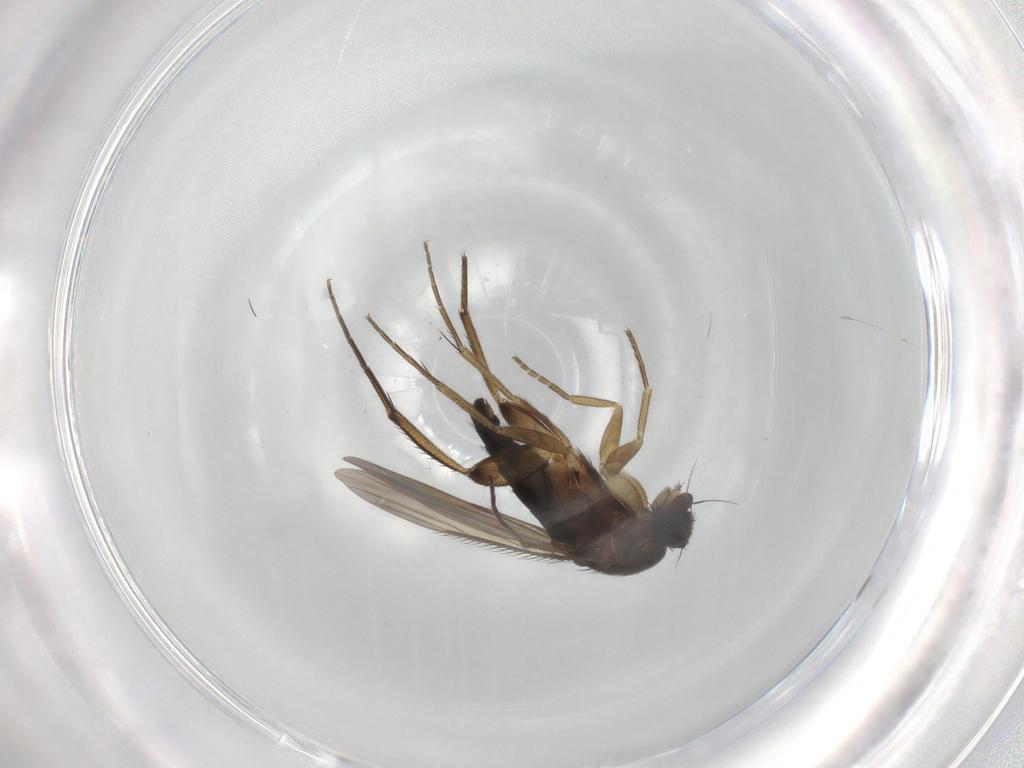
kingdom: Animalia
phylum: Arthropoda
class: Insecta
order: Diptera
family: Phoridae
